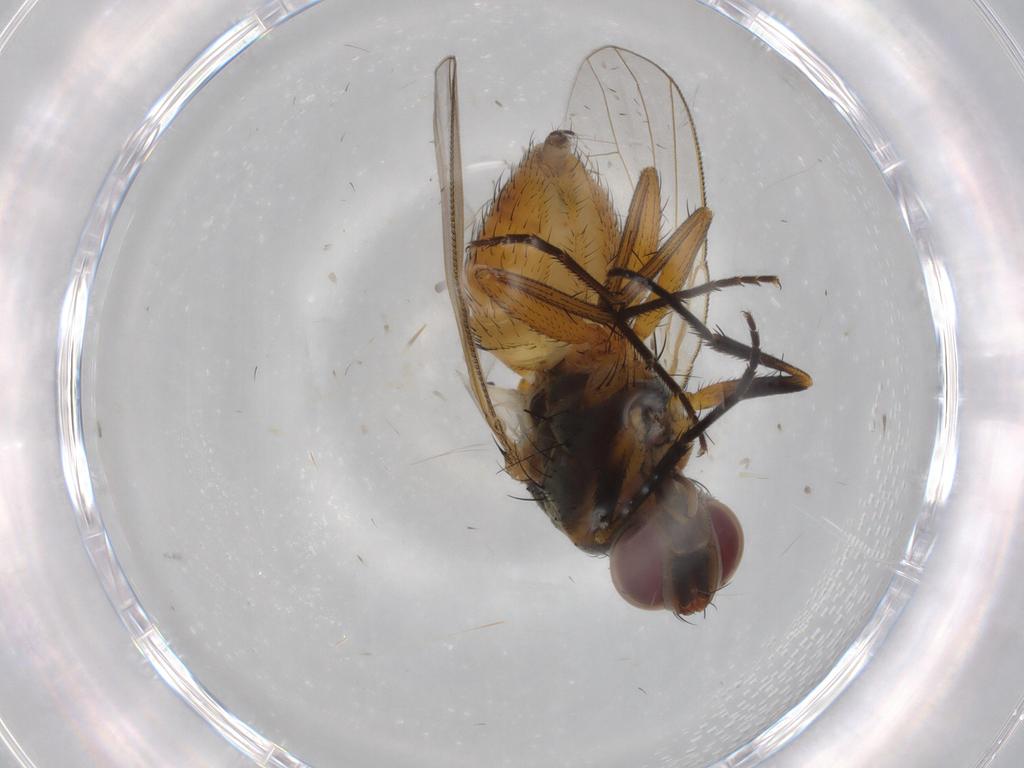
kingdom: Animalia
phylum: Arthropoda
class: Insecta
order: Diptera
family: Muscidae
